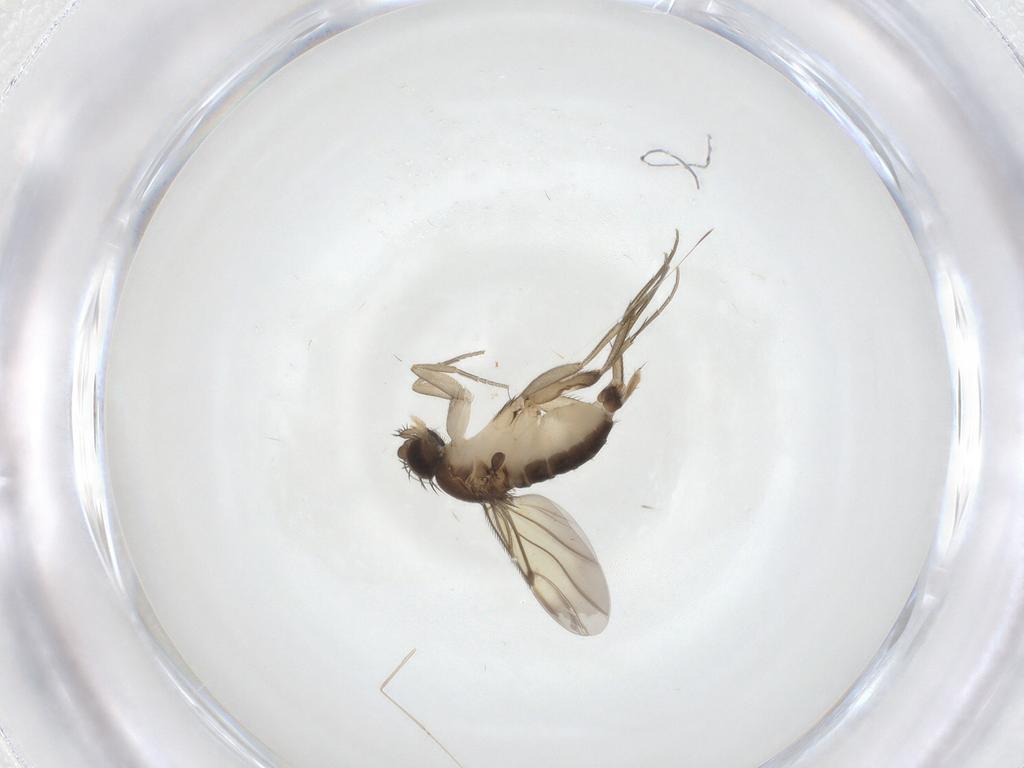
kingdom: Animalia
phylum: Arthropoda
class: Insecta
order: Diptera
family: Phoridae
